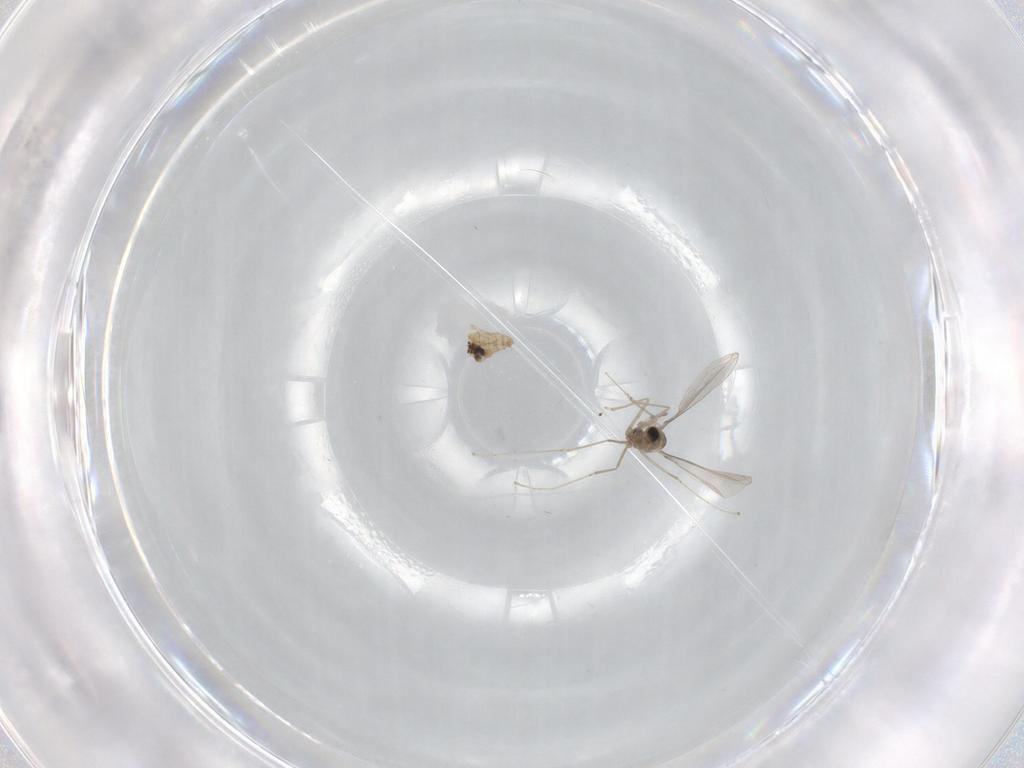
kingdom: Animalia
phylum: Arthropoda
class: Insecta
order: Diptera
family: Cecidomyiidae
